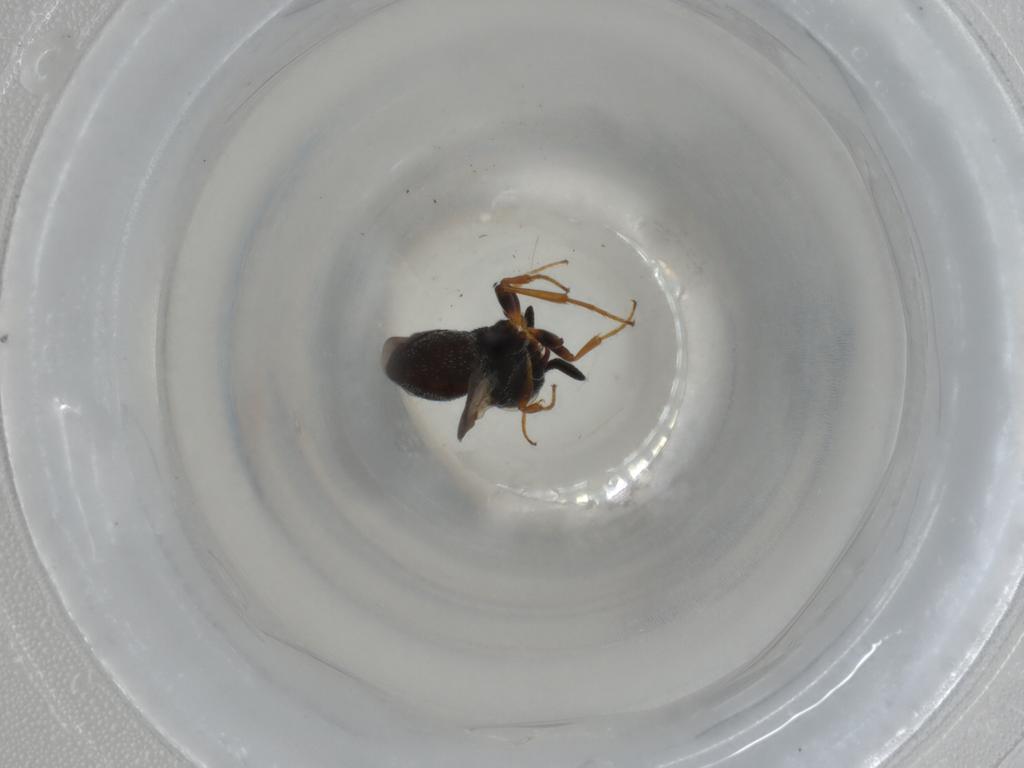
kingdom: Animalia
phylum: Arthropoda
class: Insecta
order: Hymenoptera
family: Formicidae
